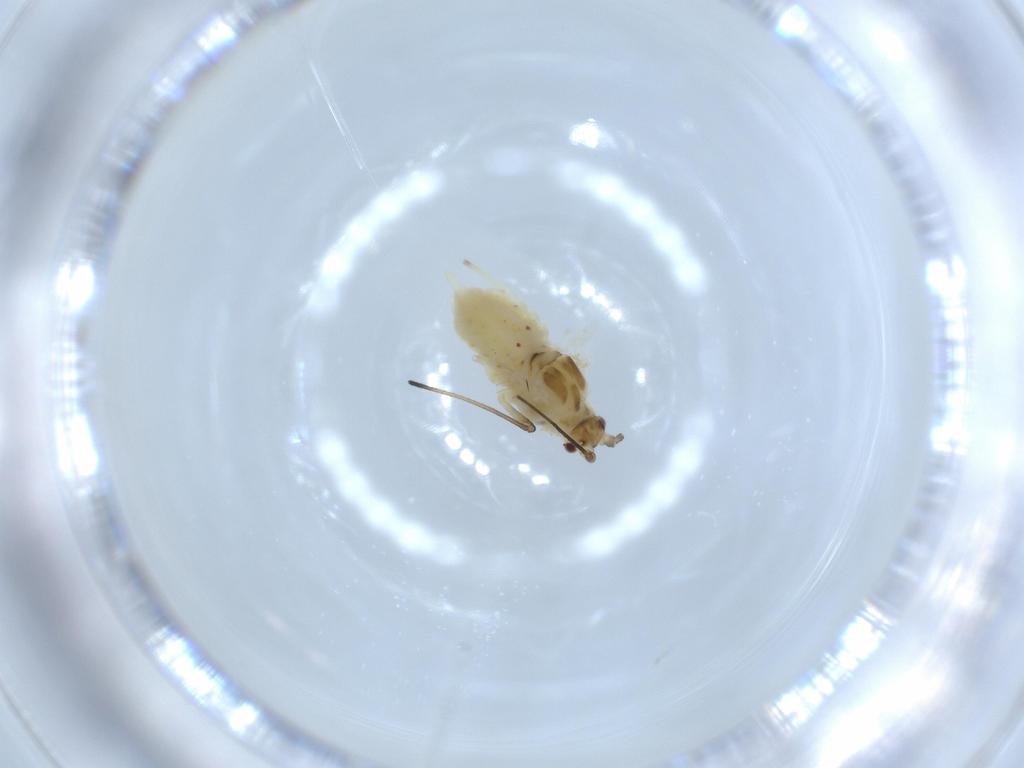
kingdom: Animalia
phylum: Arthropoda
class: Insecta
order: Hemiptera
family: Aphididae
